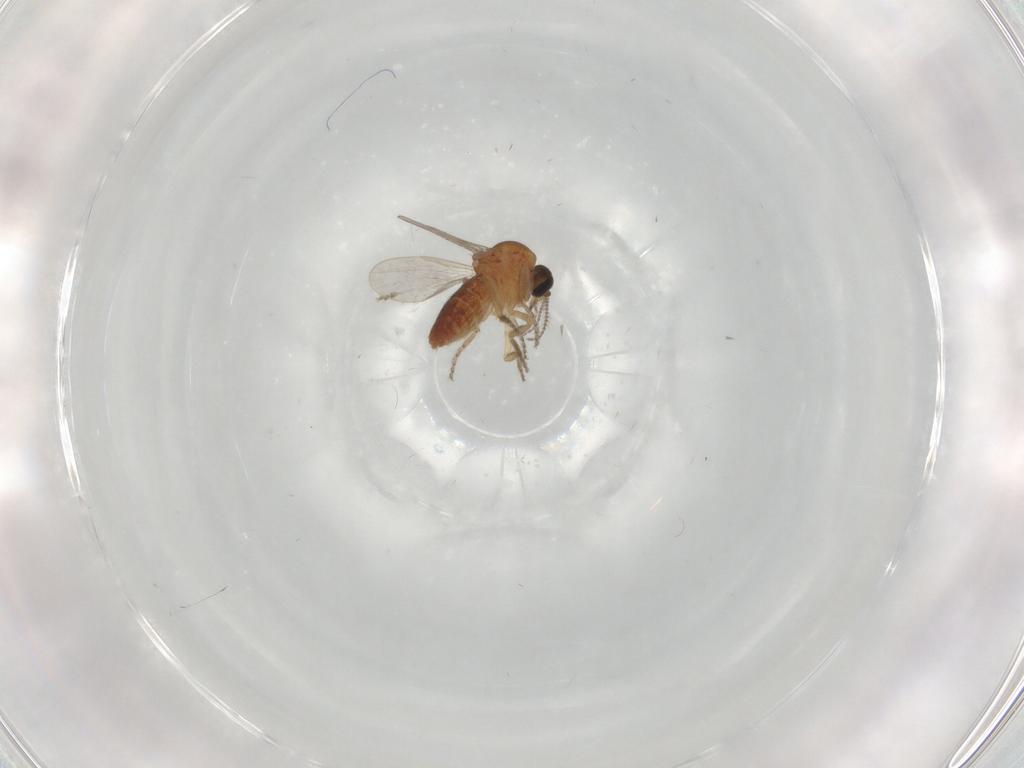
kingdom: Animalia
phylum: Arthropoda
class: Insecta
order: Diptera
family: Ceratopogonidae
